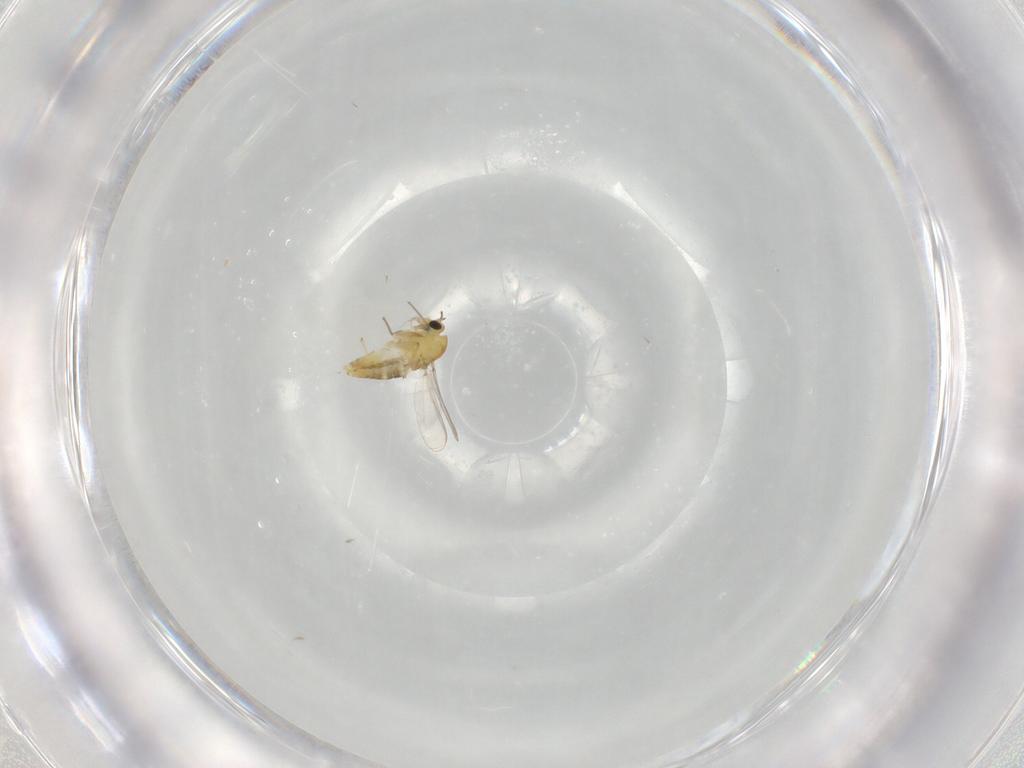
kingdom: Animalia
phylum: Arthropoda
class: Insecta
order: Diptera
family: Chironomidae
